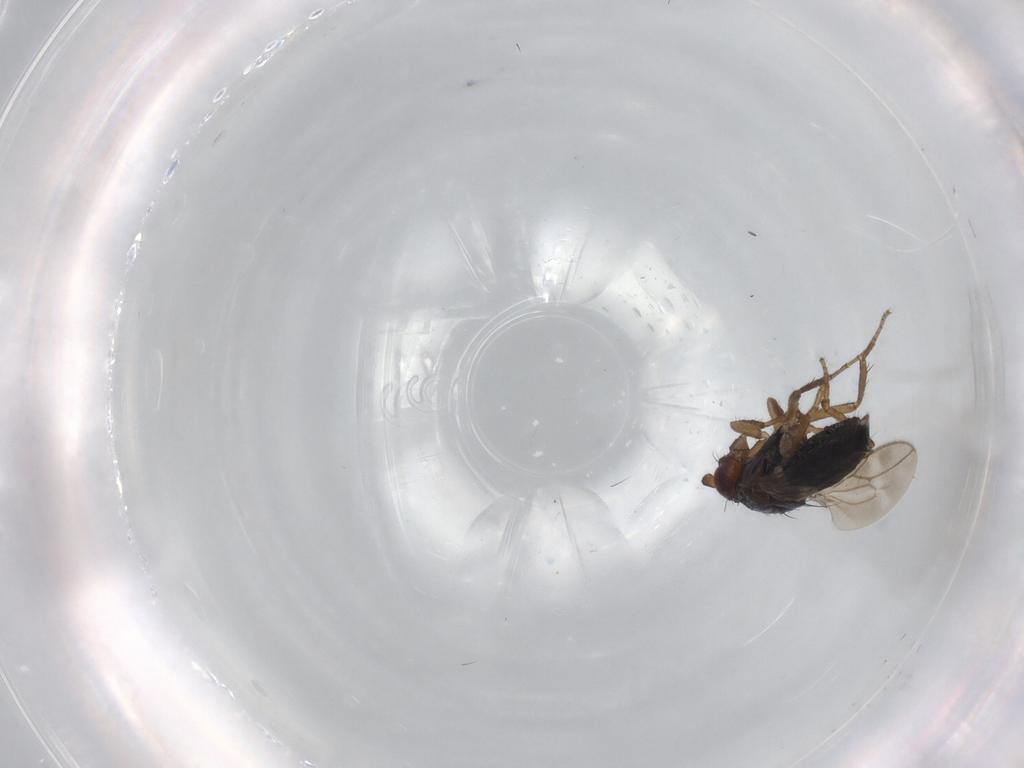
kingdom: Animalia
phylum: Arthropoda
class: Insecta
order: Diptera
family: Sphaeroceridae
